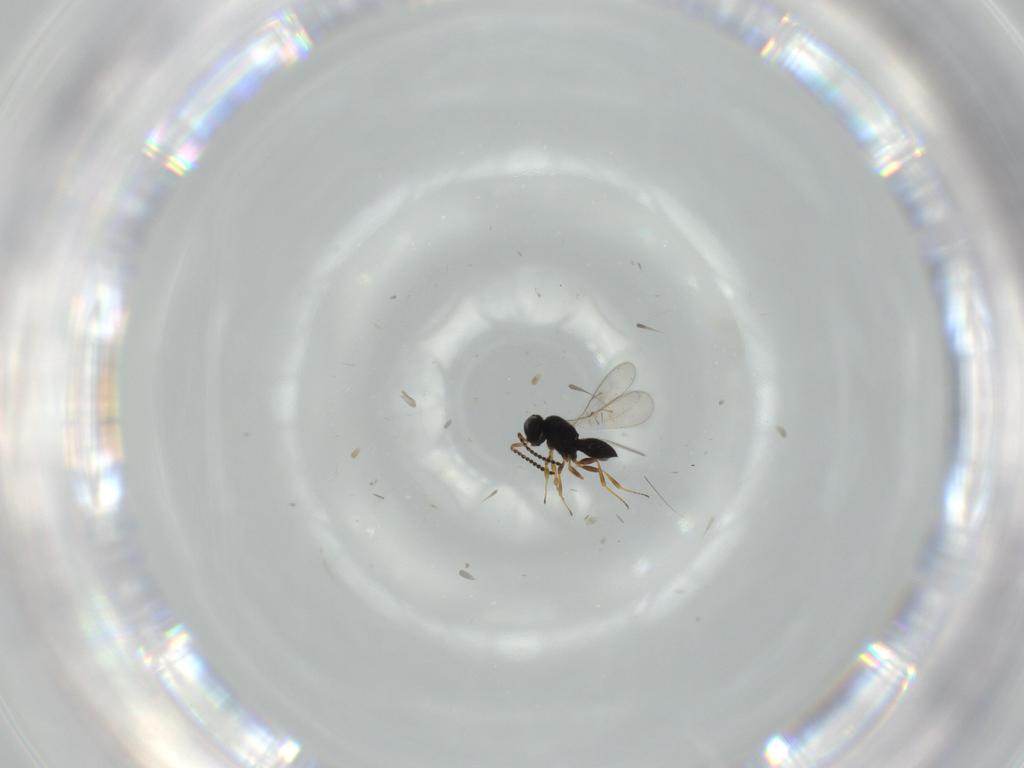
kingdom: Animalia
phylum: Arthropoda
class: Insecta
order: Hymenoptera
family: Scelionidae
